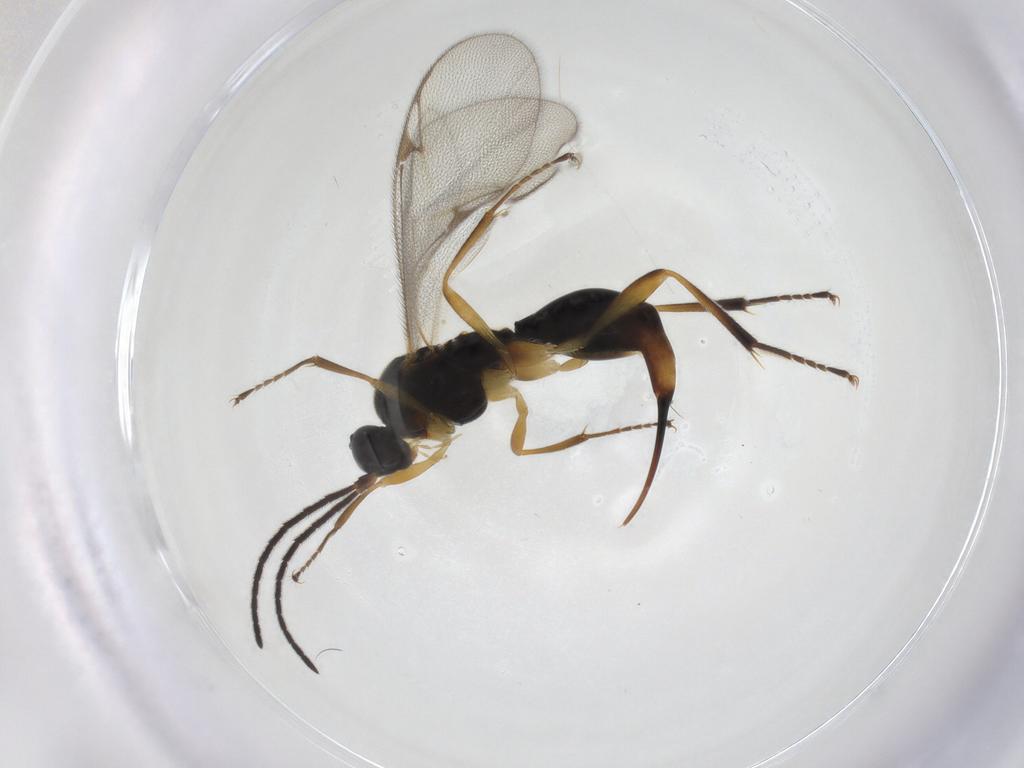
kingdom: Animalia
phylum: Arthropoda
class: Insecta
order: Hymenoptera
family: Proctotrupidae
